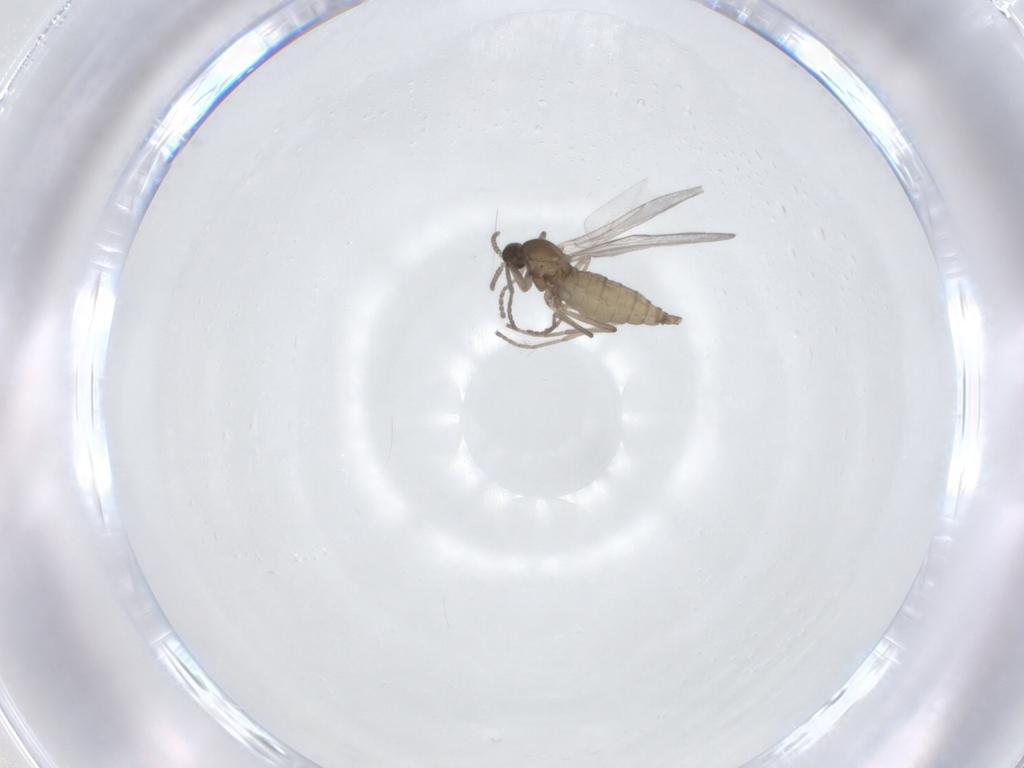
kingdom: Animalia
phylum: Arthropoda
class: Insecta
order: Diptera
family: Cecidomyiidae
